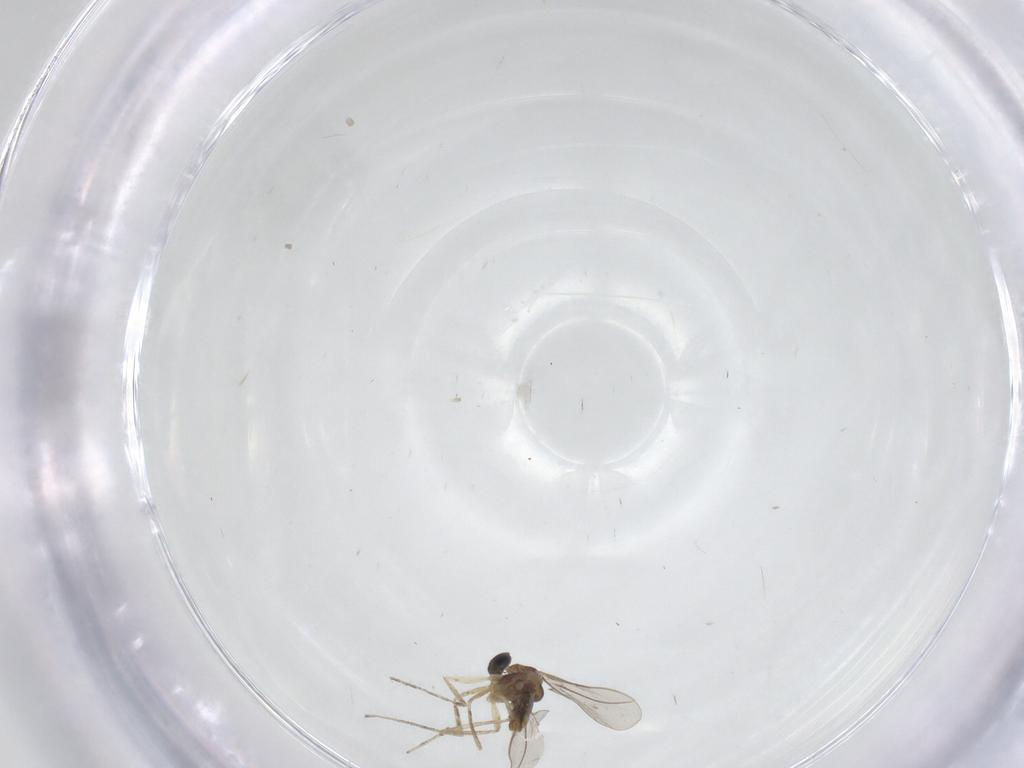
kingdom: Animalia
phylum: Arthropoda
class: Insecta
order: Diptera
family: Cecidomyiidae
